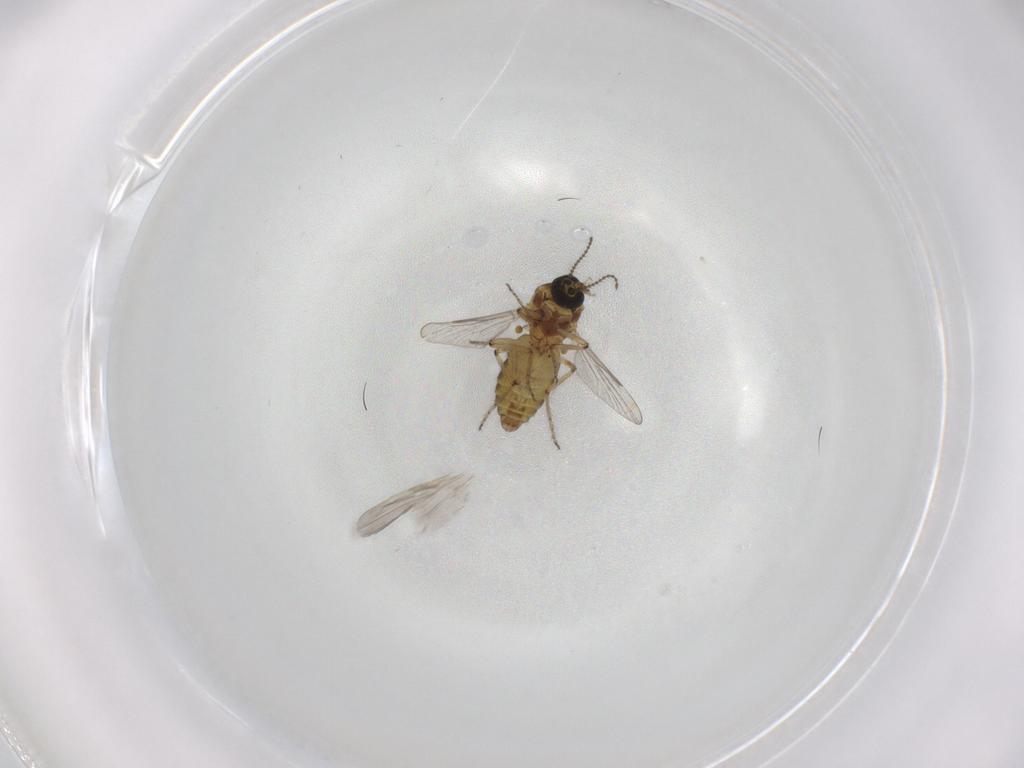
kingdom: Animalia
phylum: Arthropoda
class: Insecta
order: Diptera
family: Ceratopogonidae
